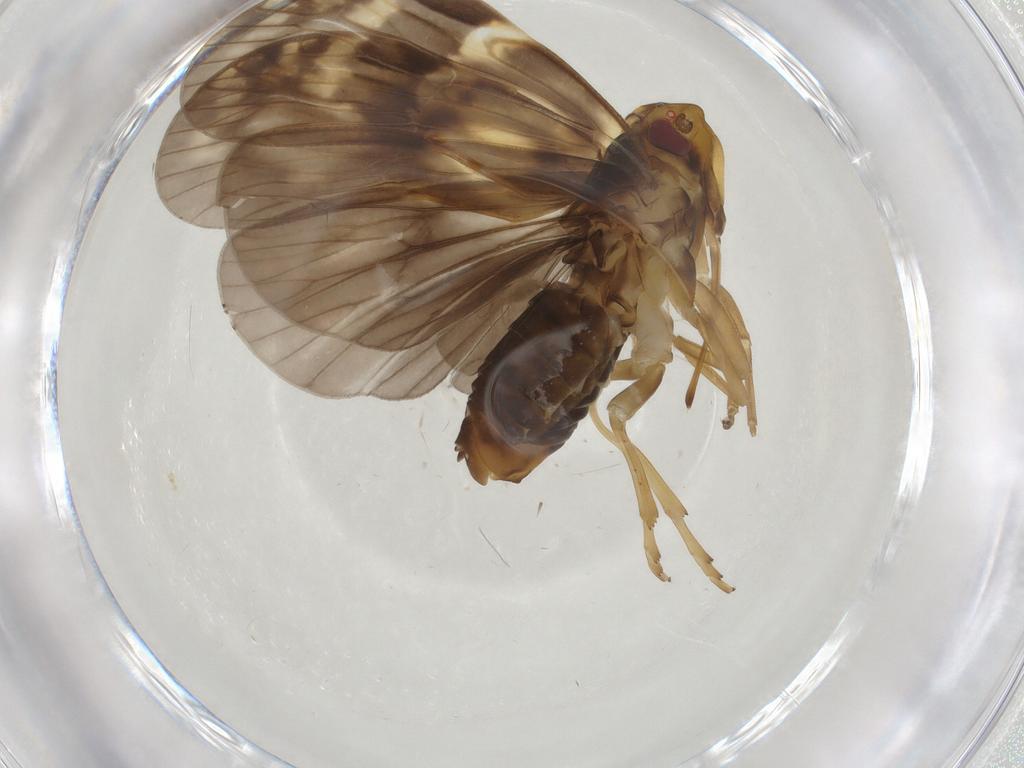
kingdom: Animalia
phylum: Arthropoda
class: Insecta
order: Hemiptera
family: Cixiidae
